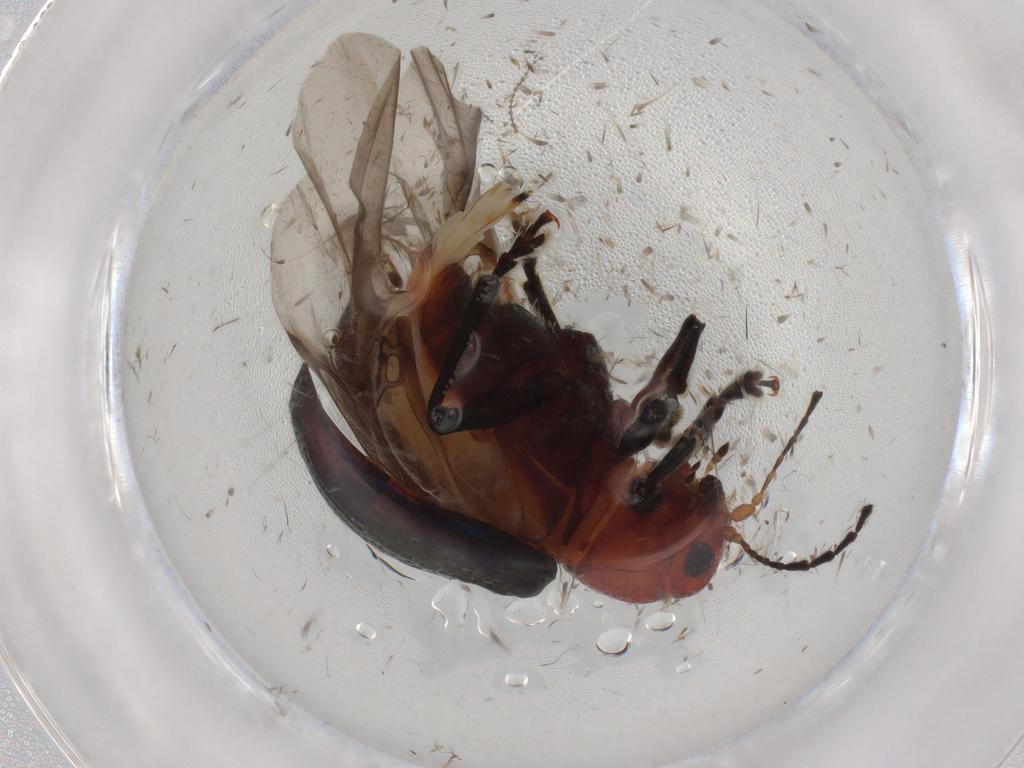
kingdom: Animalia
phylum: Arthropoda
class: Insecta
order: Coleoptera
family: Chrysomelidae
